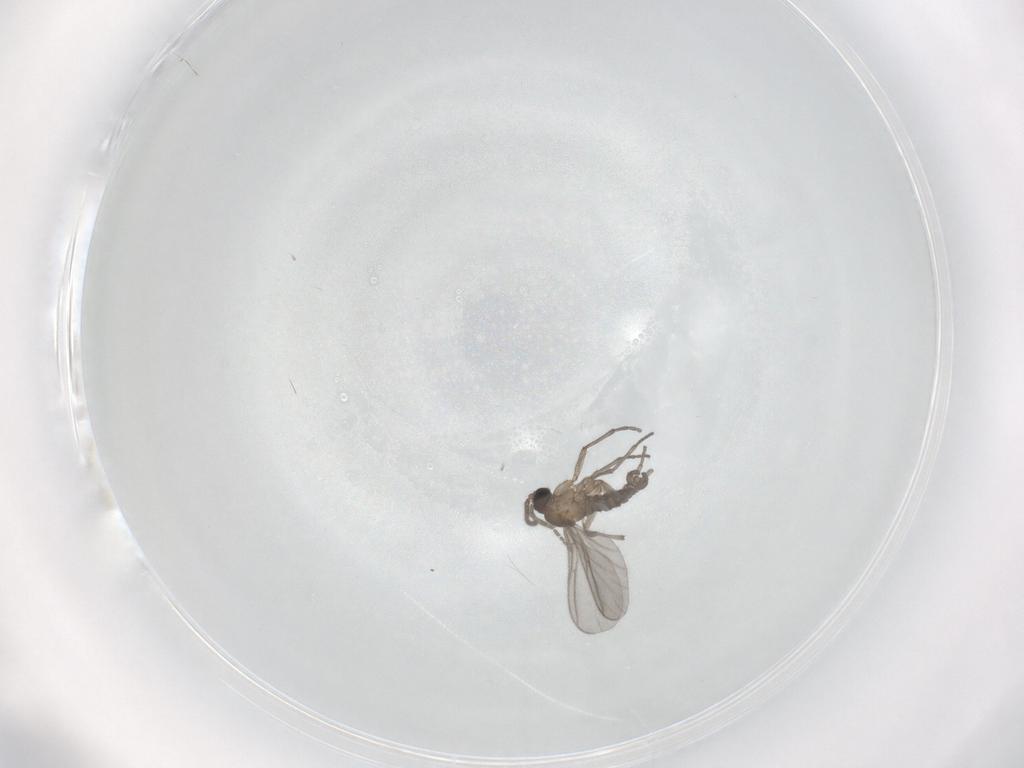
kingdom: Animalia
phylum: Arthropoda
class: Insecta
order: Diptera
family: Sciaridae
